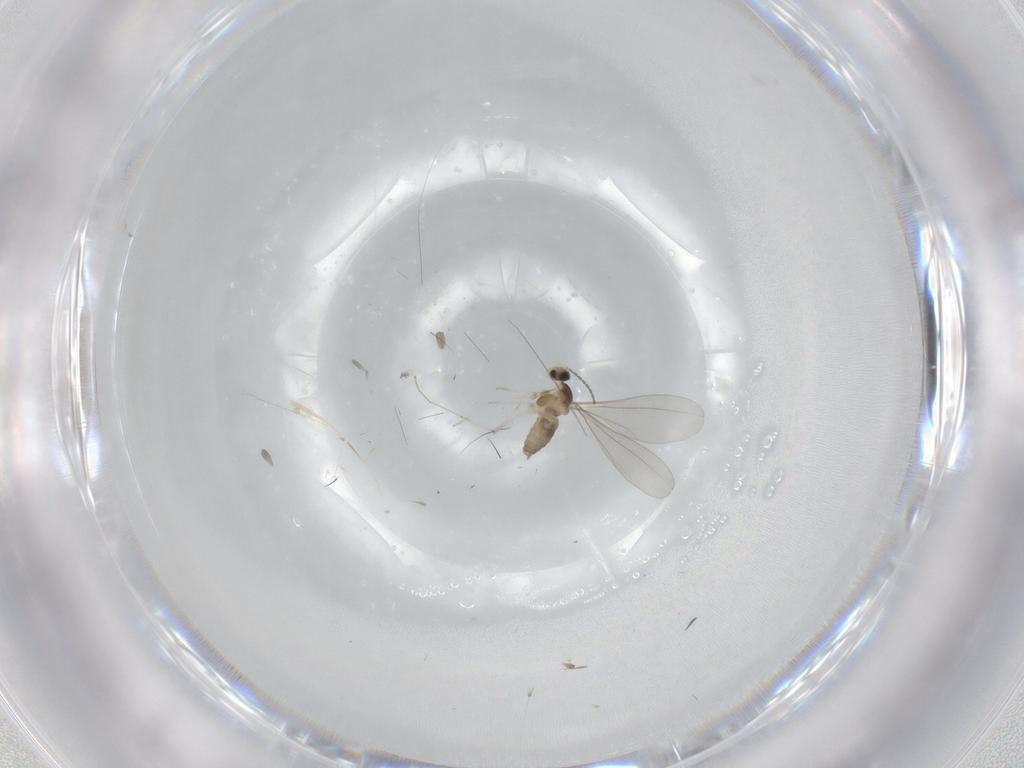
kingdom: Animalia
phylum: Arthropoda
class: Insecta
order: Diptera
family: Cecidomyiidae
